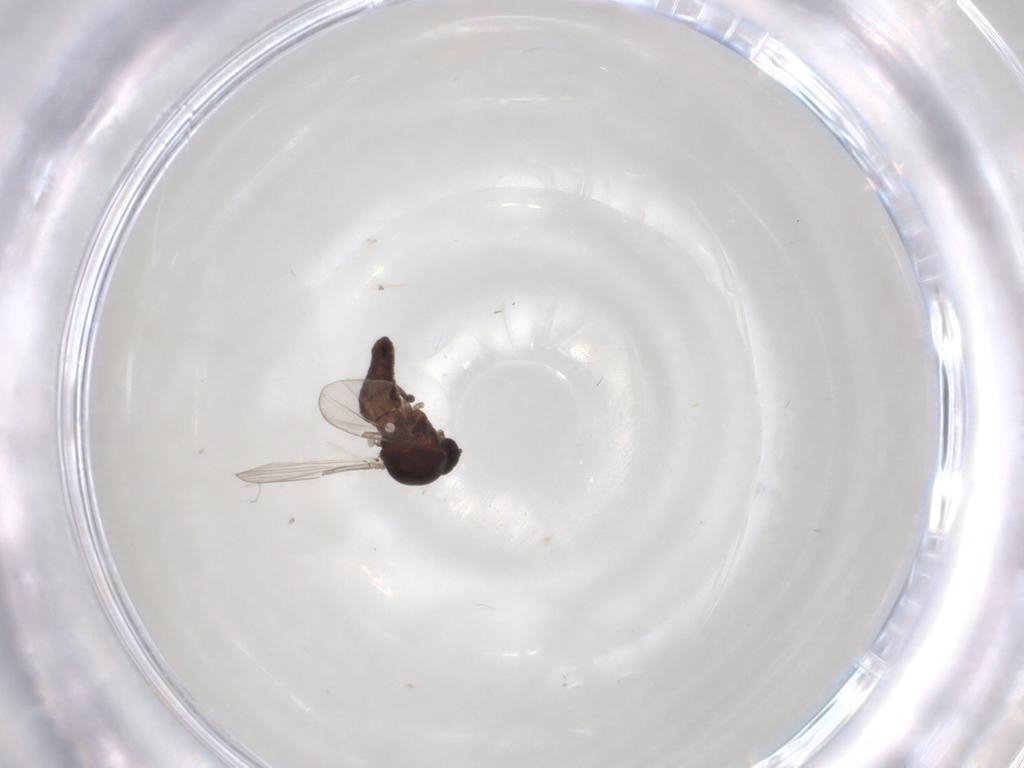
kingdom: Animalia
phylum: Arthropoda
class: Insecta
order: Diptera
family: Ceratopogonidae
